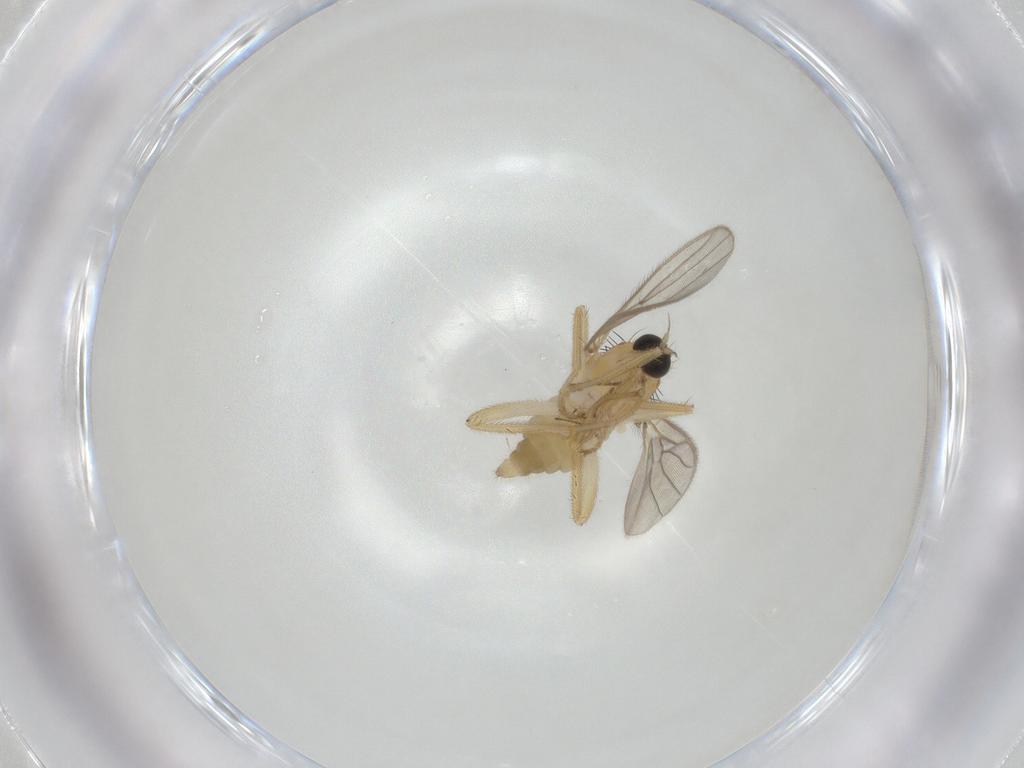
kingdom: Animalia
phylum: Arthropoda
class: Insecta
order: Diptera
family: Hybotidae
